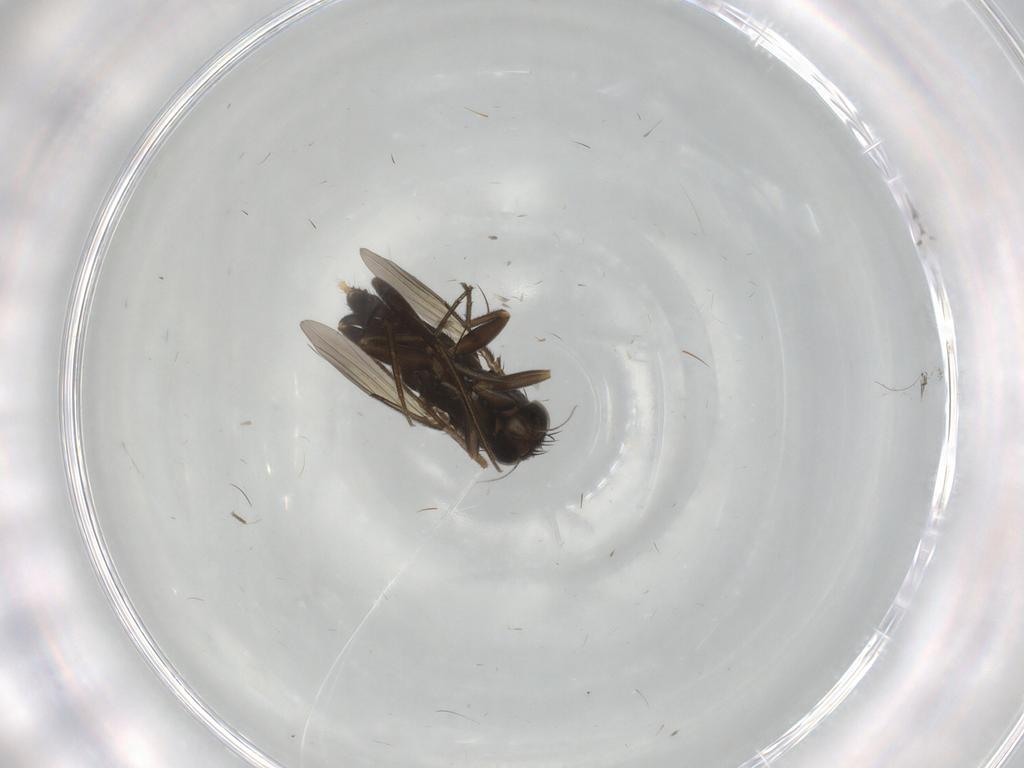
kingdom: Animalia
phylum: Arthropoda
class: Insecta
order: Diptera
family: Phoridae
